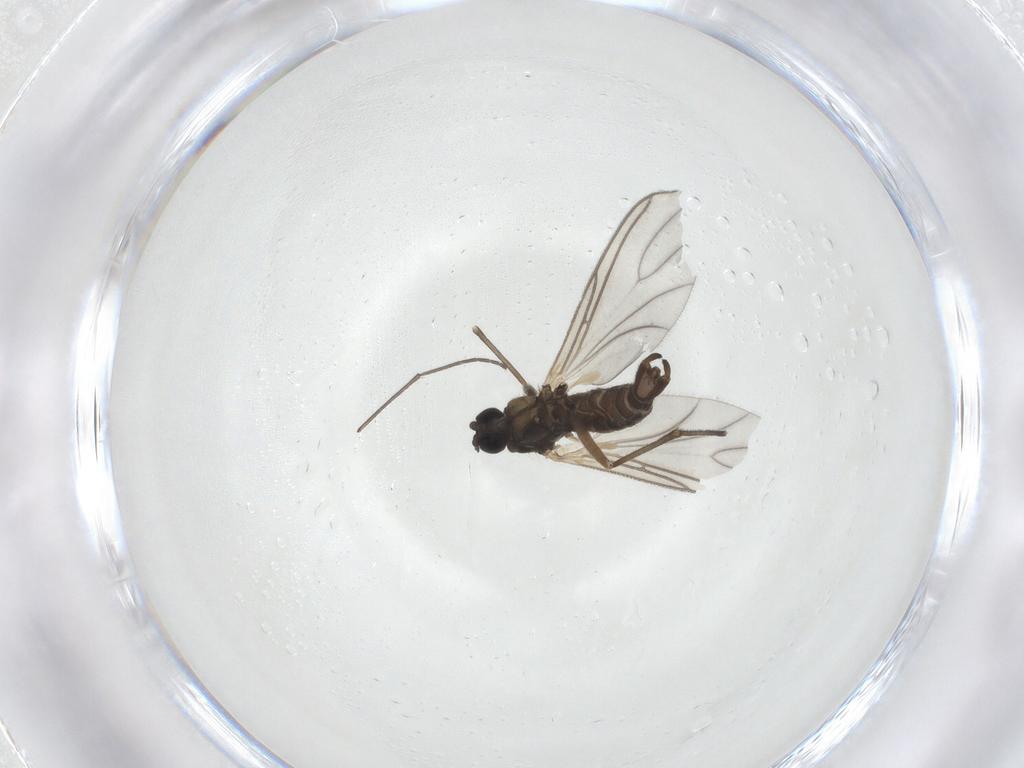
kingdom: Animalia
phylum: Arthropoda
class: Insecta
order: Diptera
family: Sciaridae
